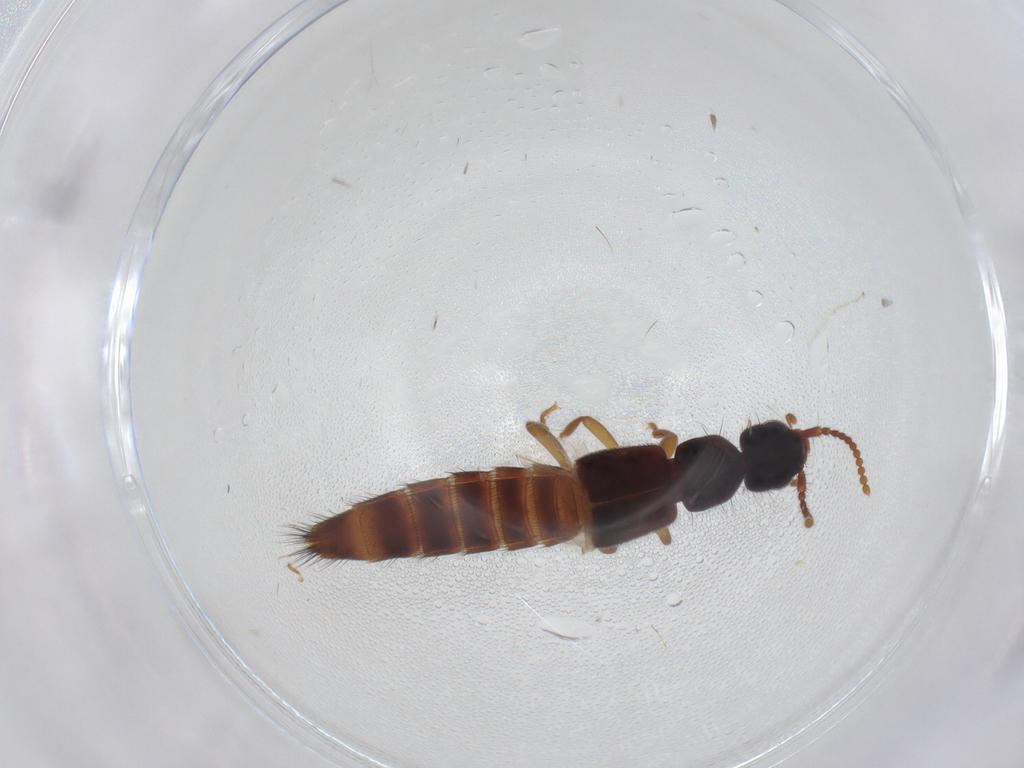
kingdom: Animalia
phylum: Arthropoda
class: Insecta
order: Coleoptera
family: Staphylinidae
